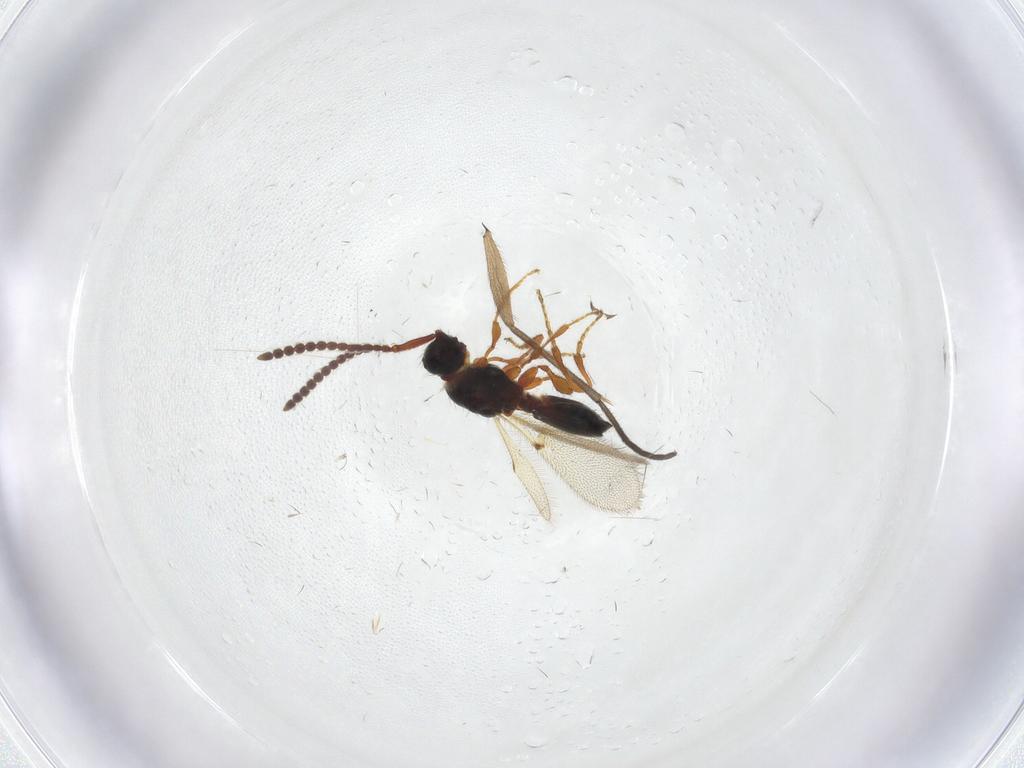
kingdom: Animalia
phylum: Arthropoda
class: Insecta
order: Hymenoptera
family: Diapriidae
